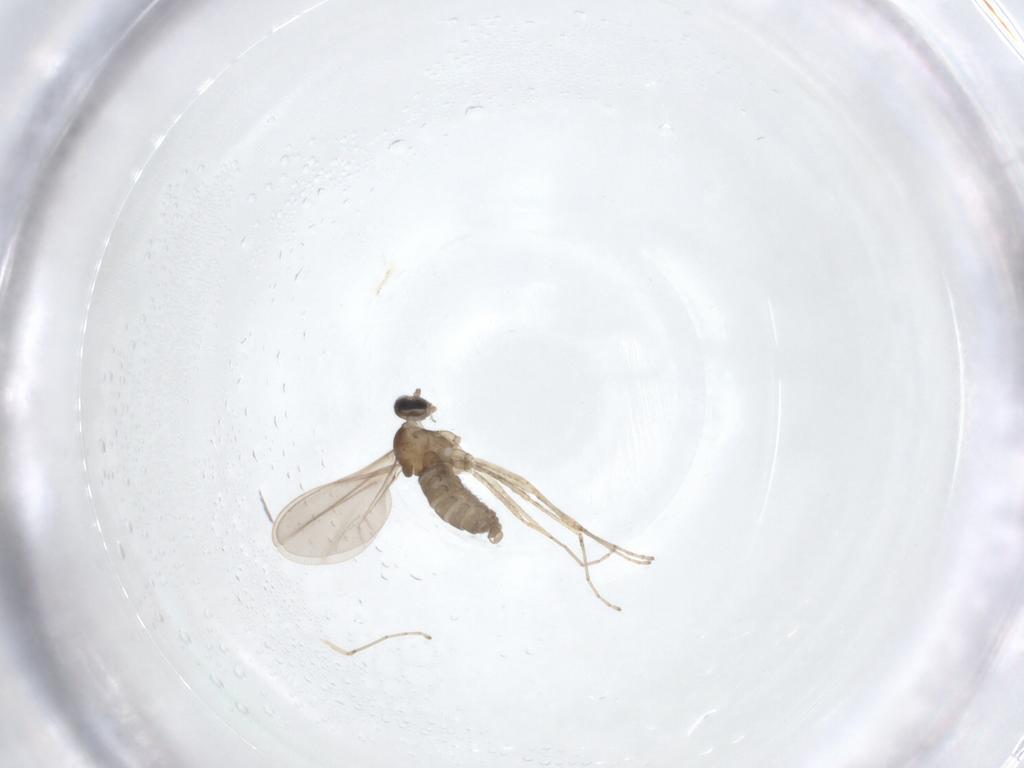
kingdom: Animalia
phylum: Arthropoda
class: Insecta
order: Diptera
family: Cecidomyiidae
